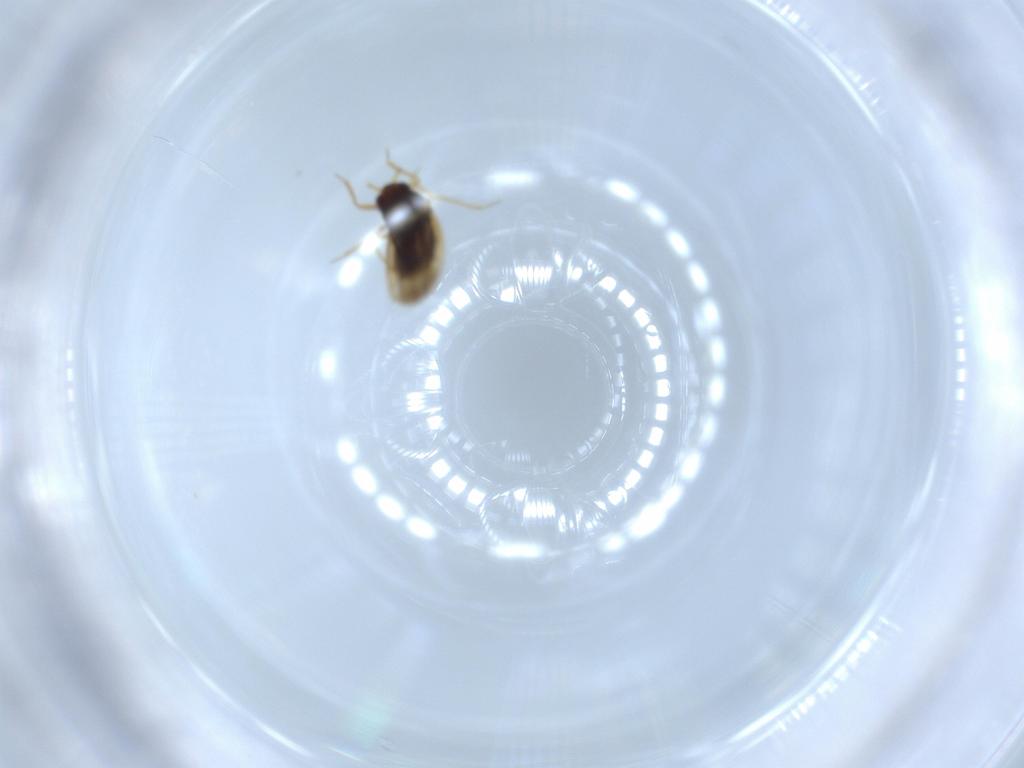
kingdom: Animalia
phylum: Arthropoda
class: Insecta
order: Hemiptera
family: Schizopteridae
